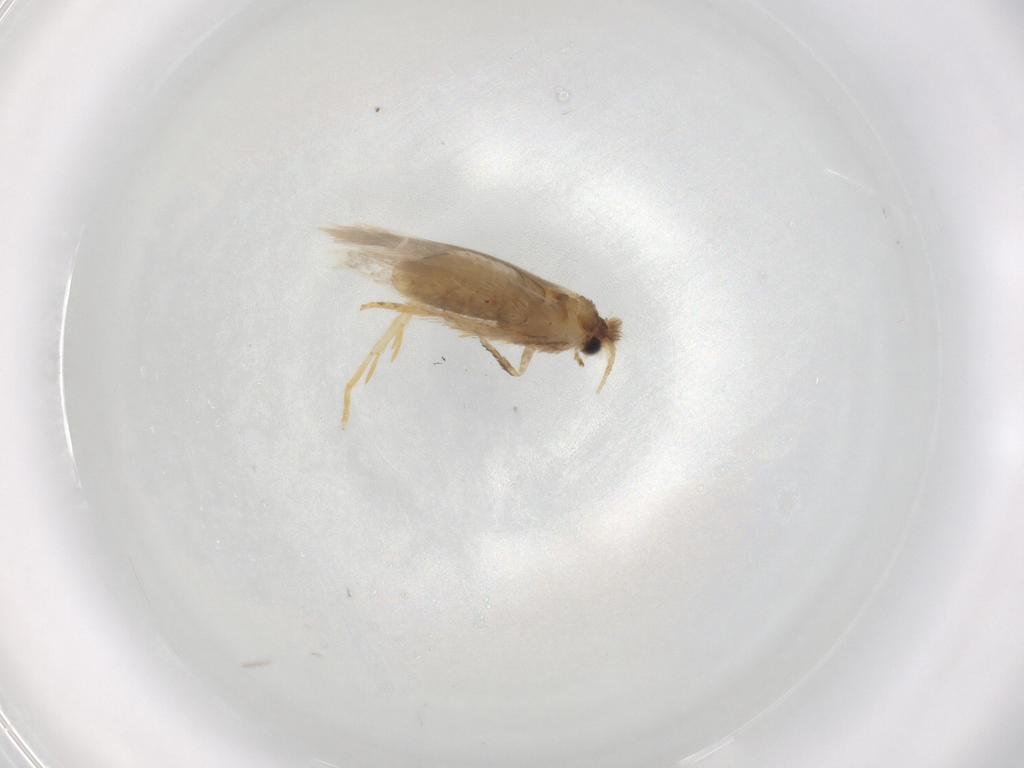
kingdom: Animalia
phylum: Arthropoda
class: Insecta
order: Lepidoptera
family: Nepticulidae
